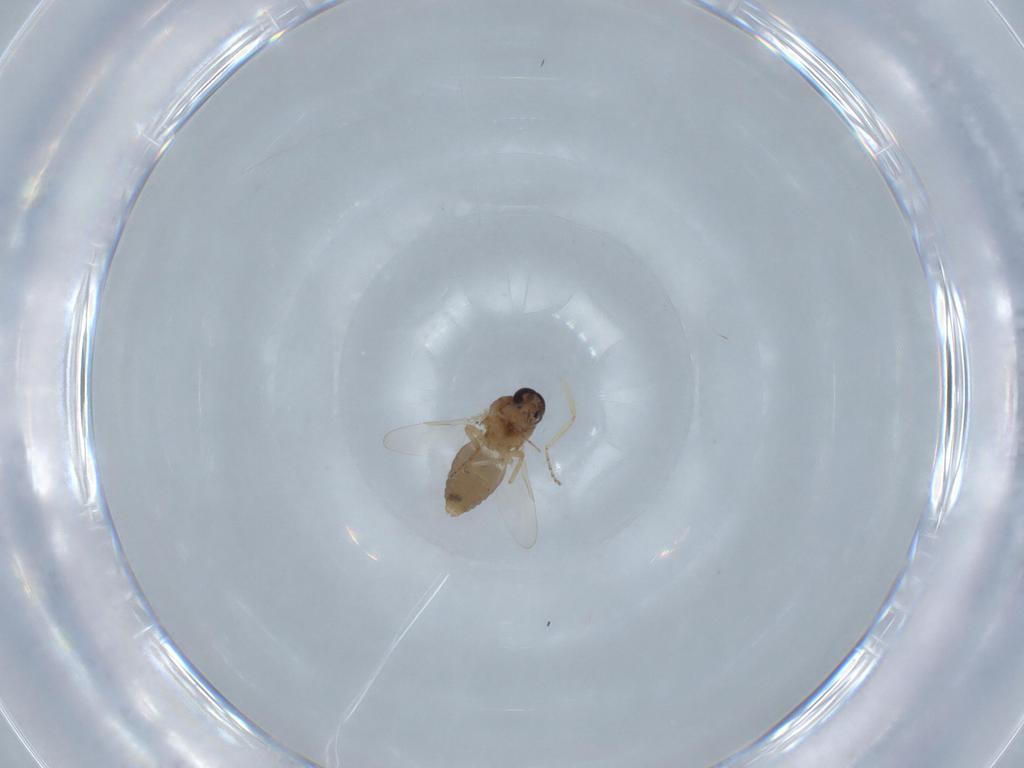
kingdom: Animalia
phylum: Arthropoda
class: Insecta
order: Diptera
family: Ceratopogonidae
